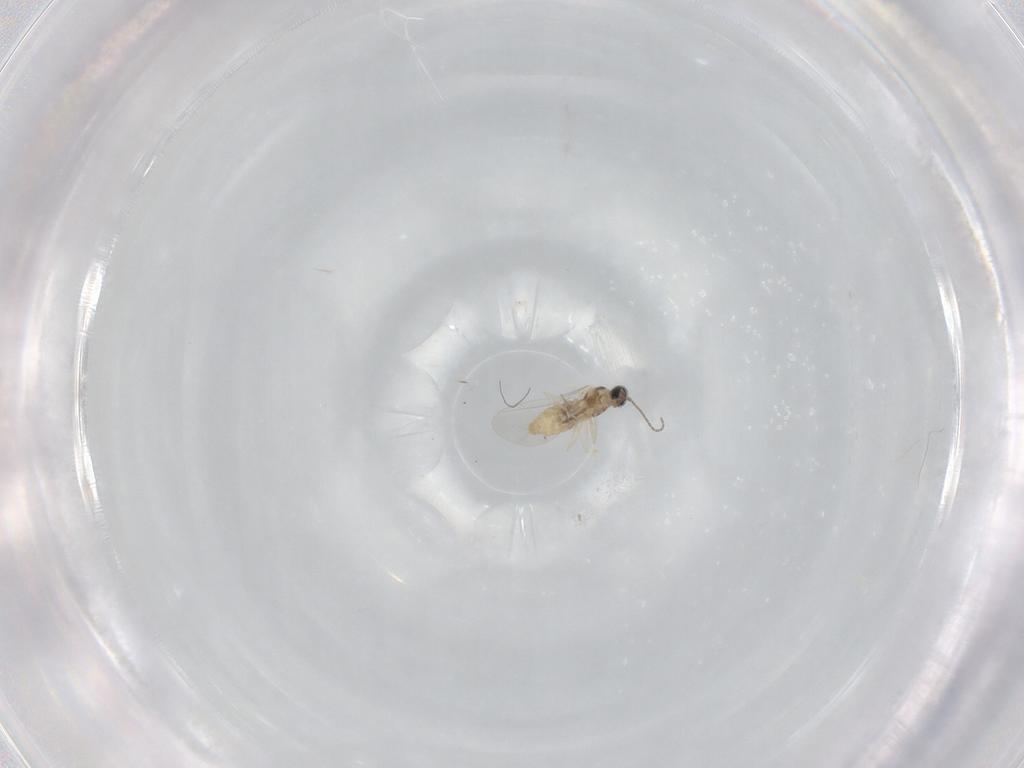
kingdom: Animalia
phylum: Arthropoda
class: Insecta
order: Diptera
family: Cecidomyiidae
